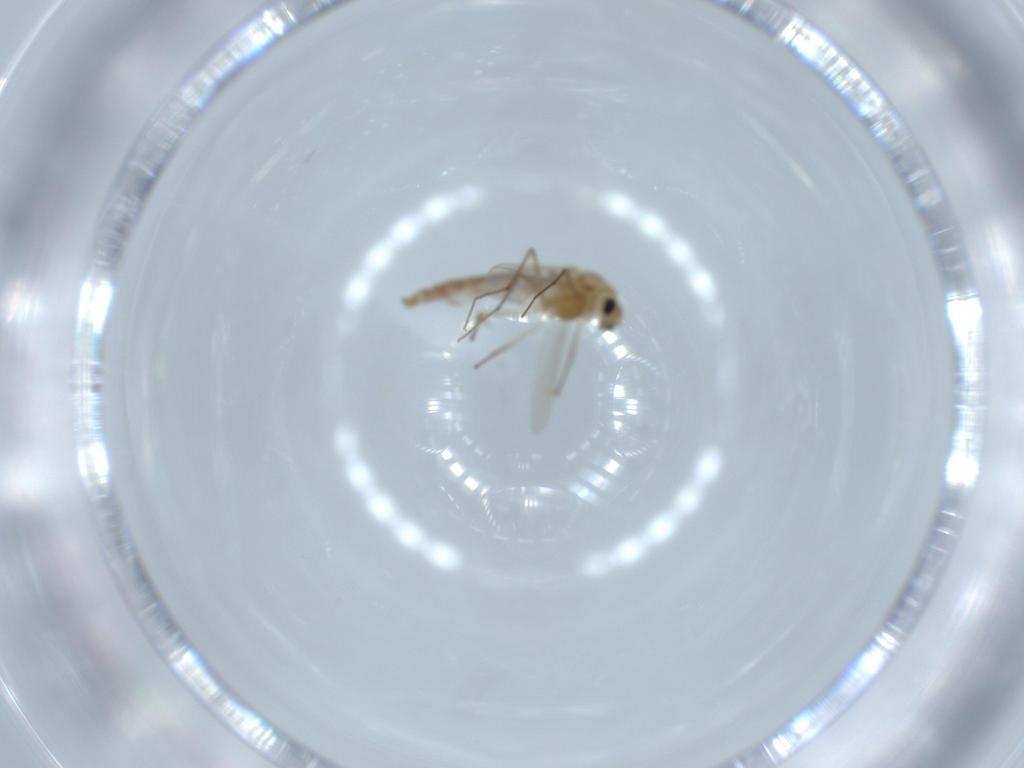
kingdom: Animalia
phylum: Arthropoda
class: Insecta
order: Diptera
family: Chironomidae
